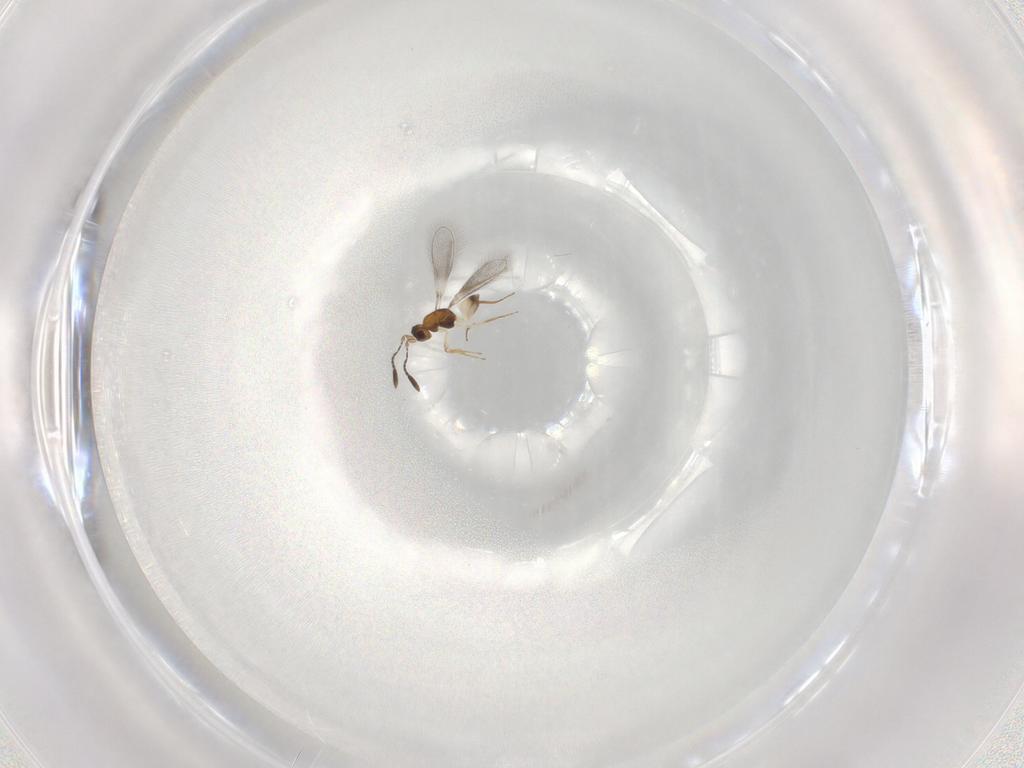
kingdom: Animalia
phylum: Arthropoda
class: Insecta
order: Hymenoptera
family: Mymaridae
